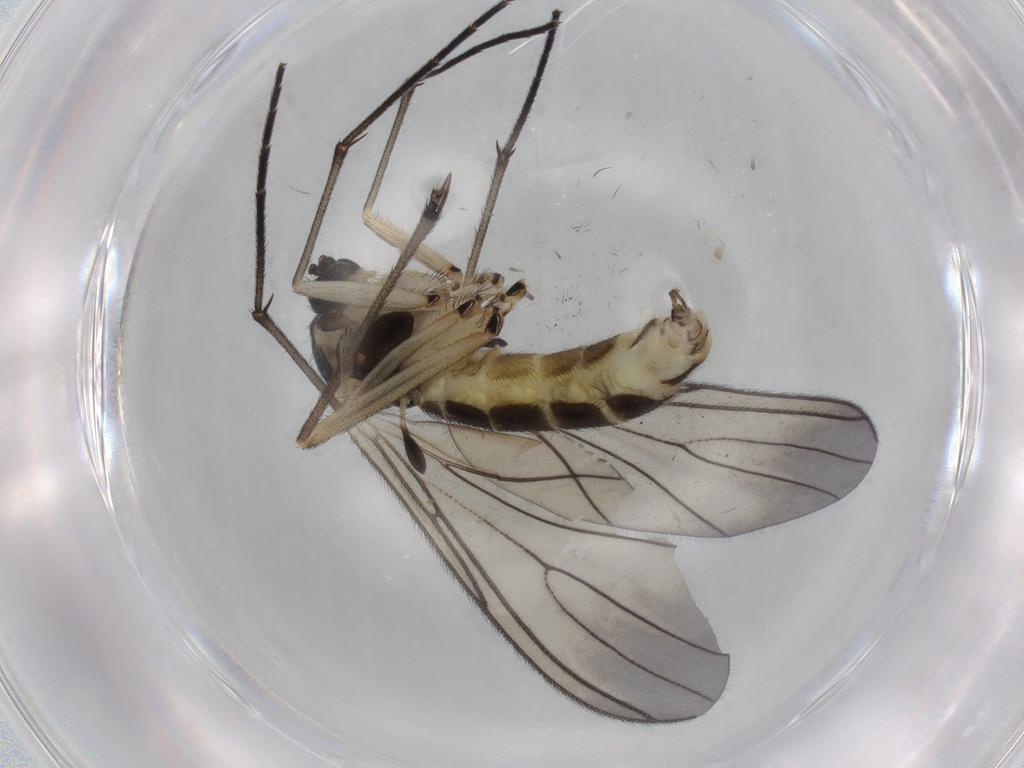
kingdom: Animalia
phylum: Arthropoda
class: Insecta
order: Diptera
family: Sciaridae
